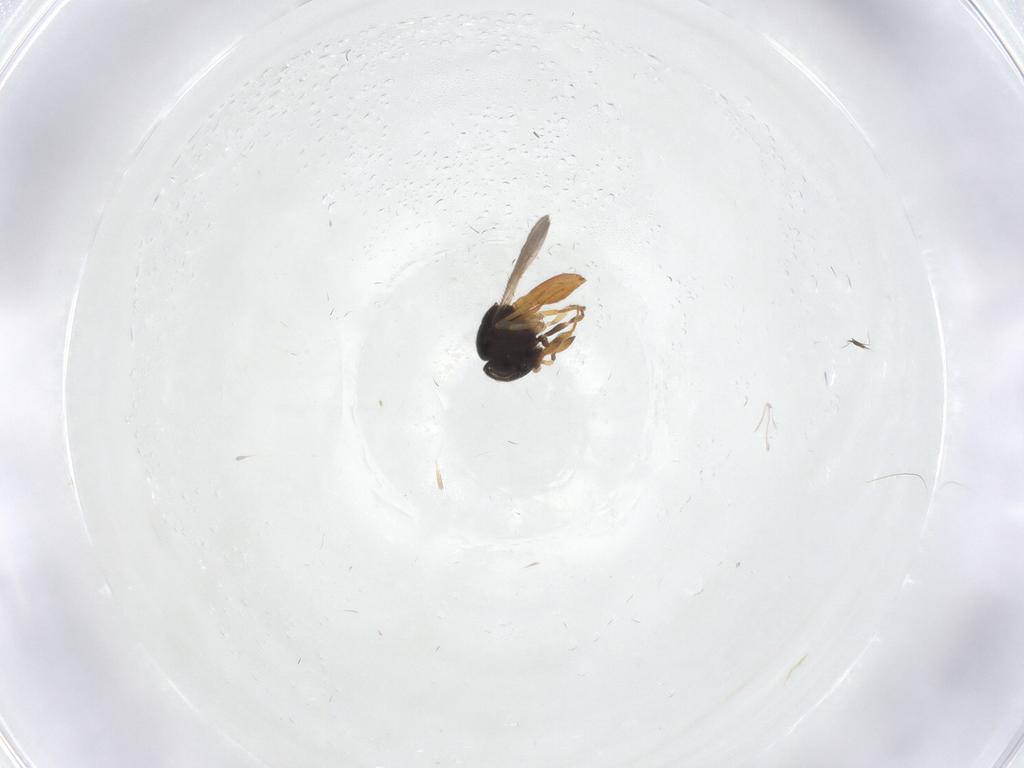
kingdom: Animalia
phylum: Arthropoda
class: Insecta
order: Hymenoptera
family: Scelionidae
